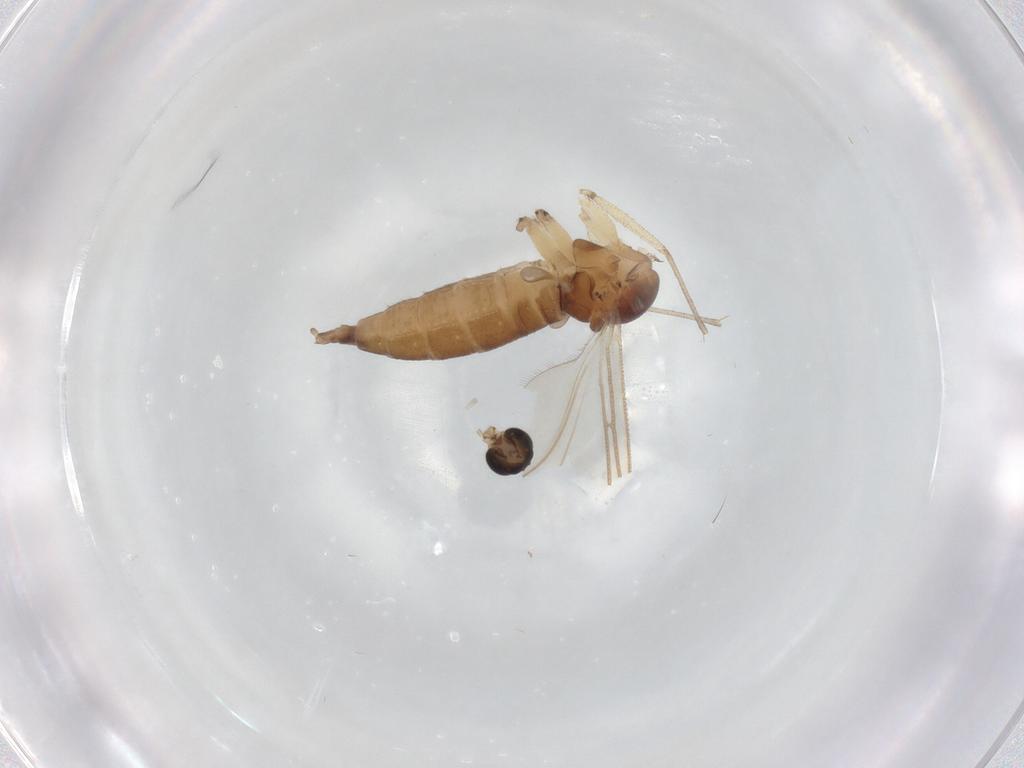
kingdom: Animalia
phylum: Arthropoda
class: Insecta
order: Diptera
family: Sciaridae
